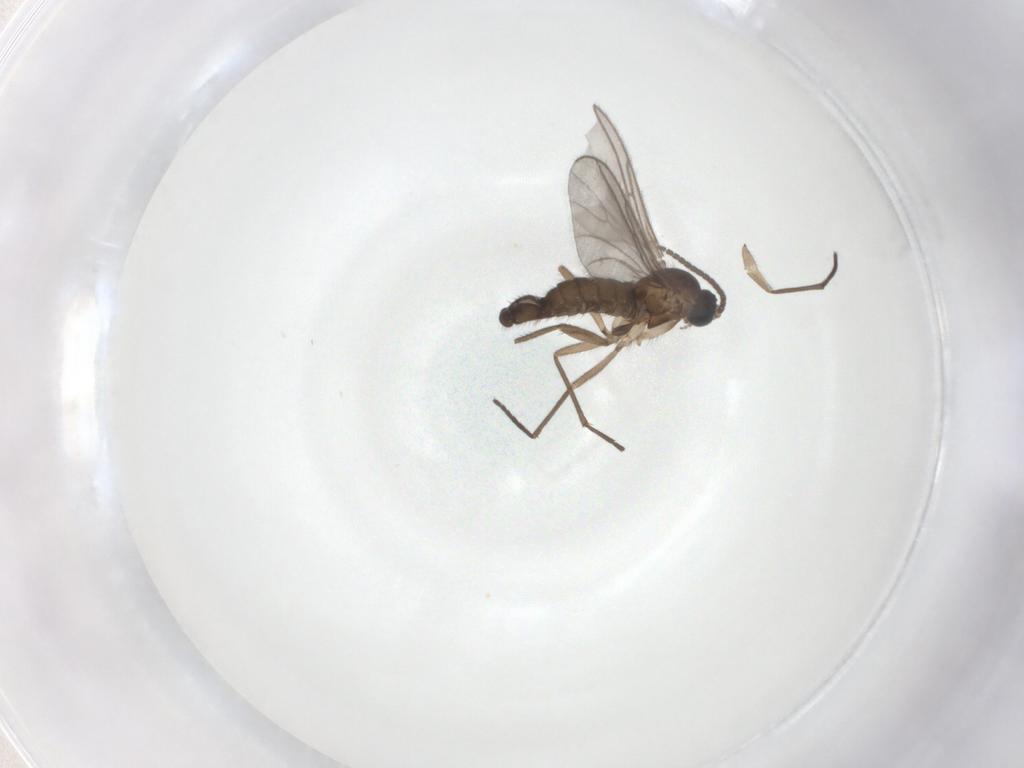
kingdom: Animalia
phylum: Arthropoda
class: Insecta
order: Diptera
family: Sciaridae
